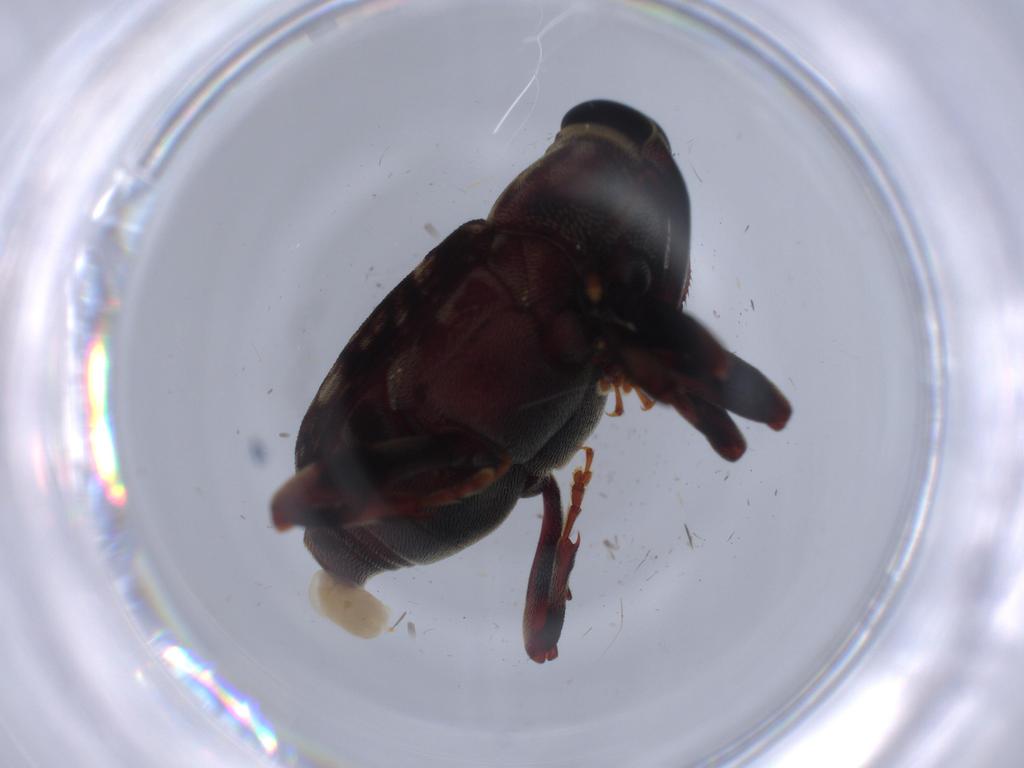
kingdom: Animalia
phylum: Arthropoda
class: Insecta
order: Coleoptera
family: Curculionidae
